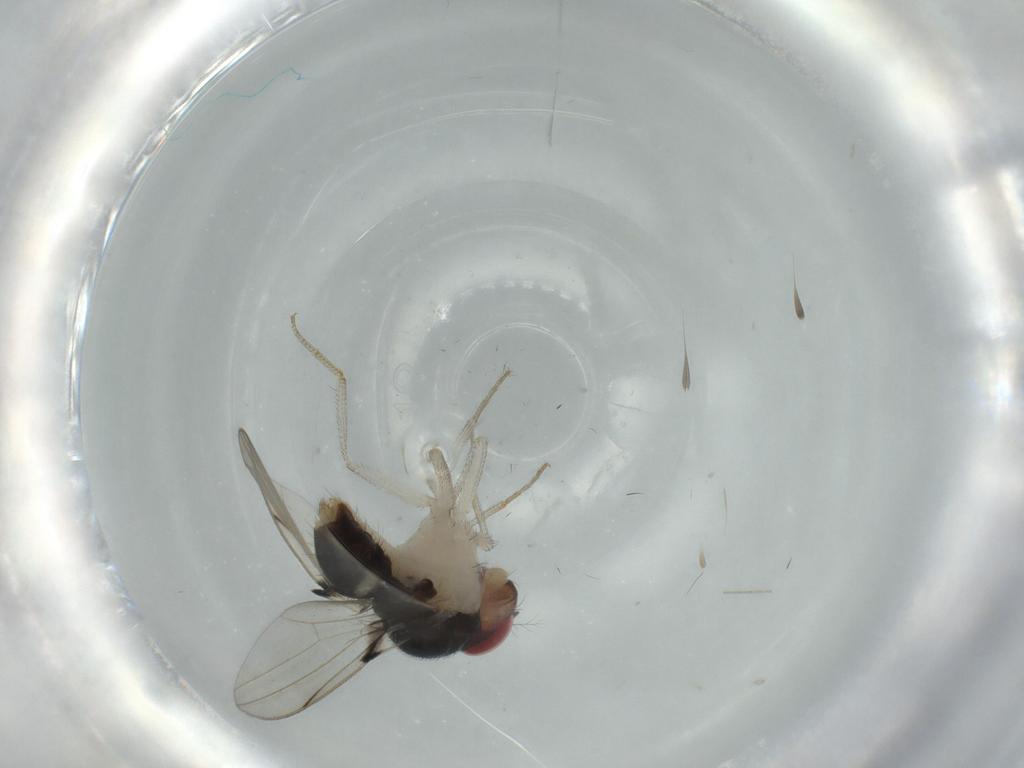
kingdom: Animalia
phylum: Arthropoda
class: Insecta
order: Diptera
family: Drosophilidae
